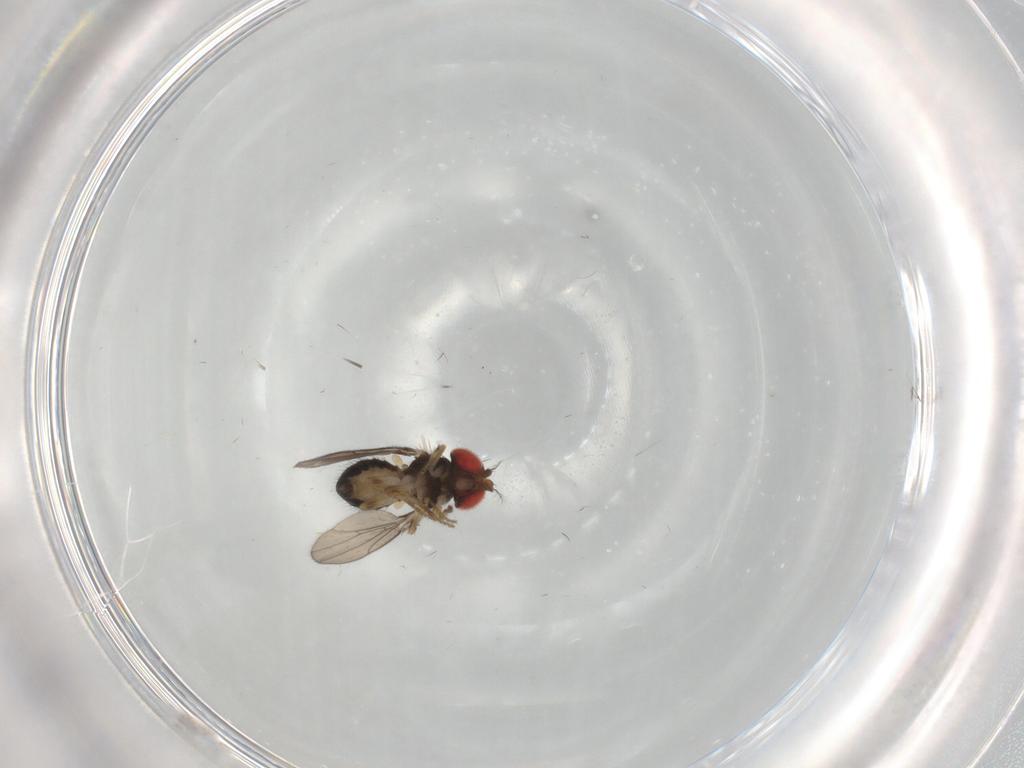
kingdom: Animalia
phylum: Arthropoda
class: Insecta
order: Diptera
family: Drosophilidae
